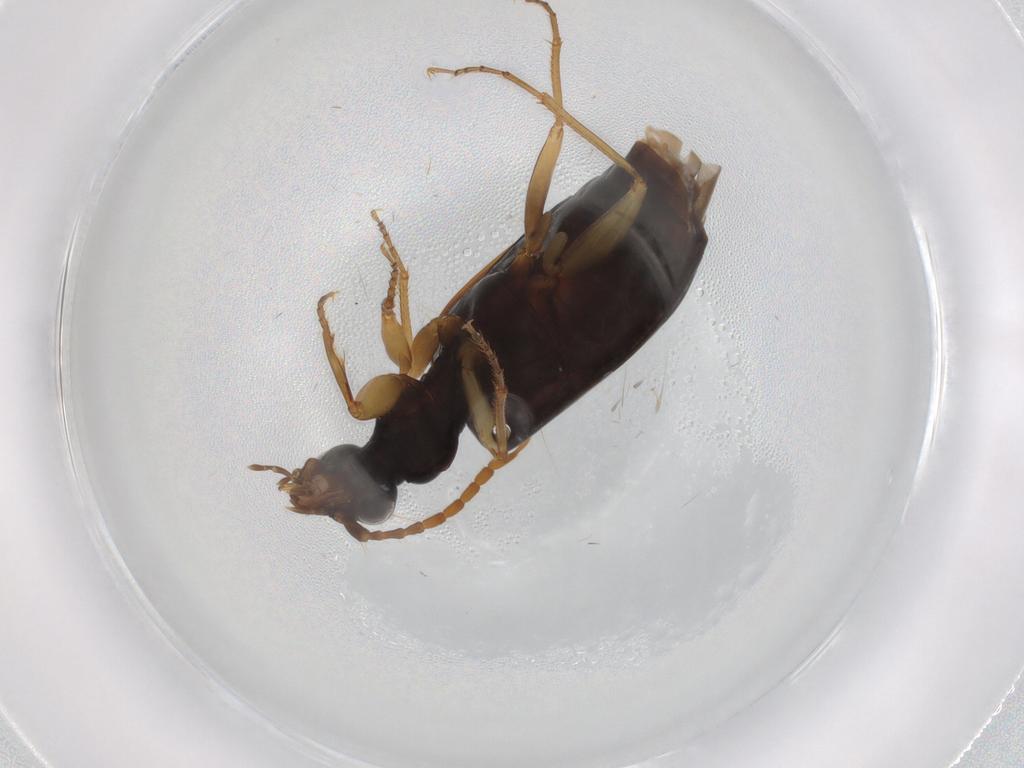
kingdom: Animalia
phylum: Arthropoda
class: Insecta
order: Coleoptera
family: Carabidae
